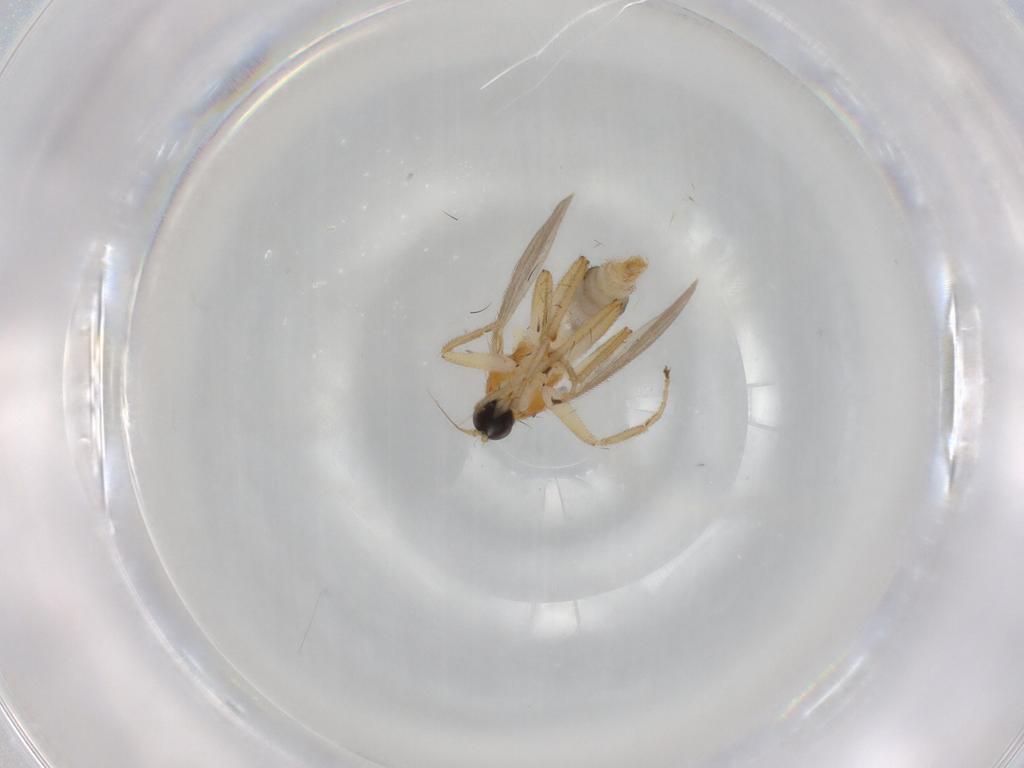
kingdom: Animalia
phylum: Arthropoda
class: Insecta
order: Diptera
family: Hybotidae
